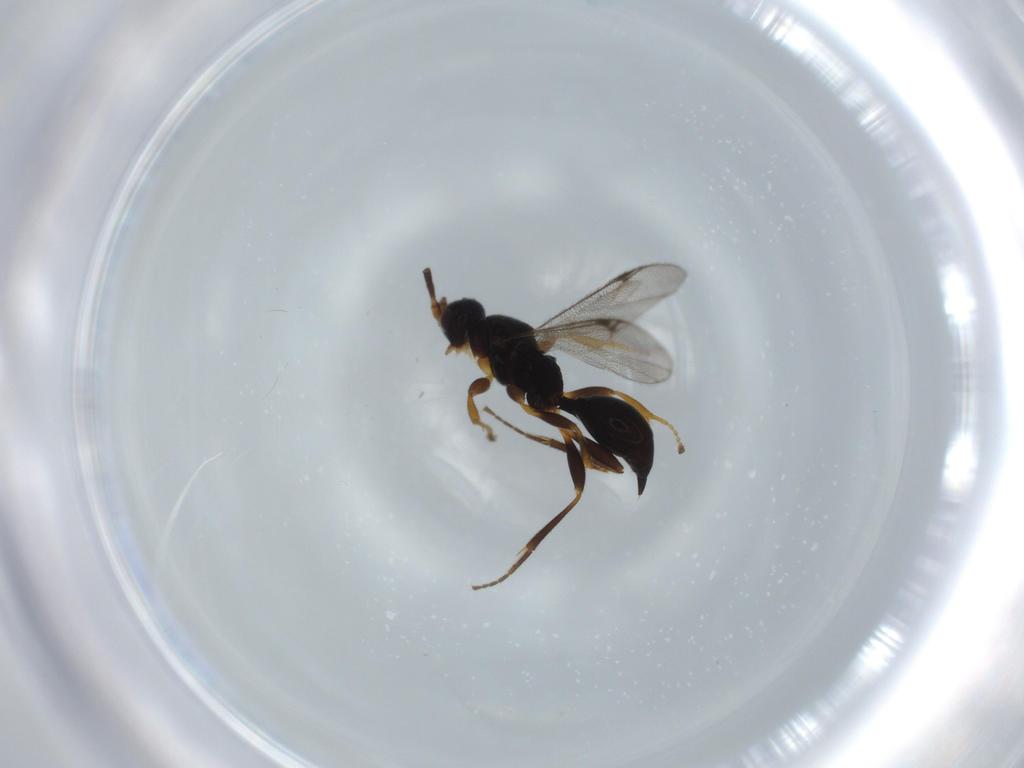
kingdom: Animalia
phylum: Arthropoda
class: Insecta
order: Hymenoptera
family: Proctotrupidae
